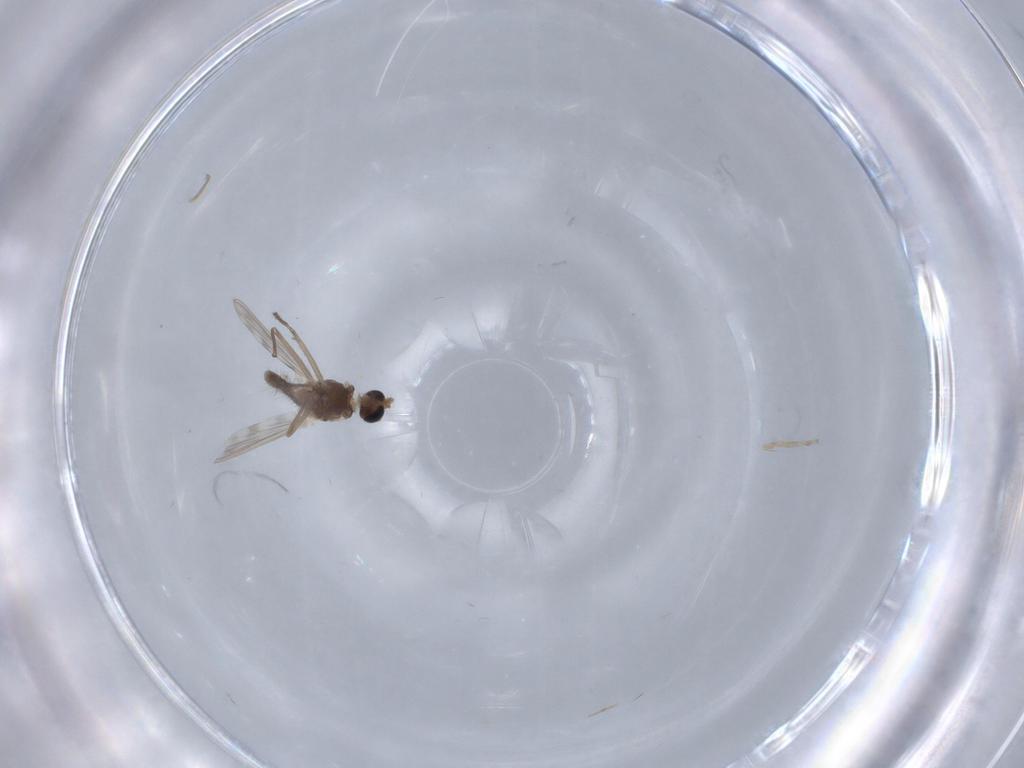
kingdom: Animalia
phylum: Arthropoda
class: Insecta
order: Diptera
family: Chironomidae
